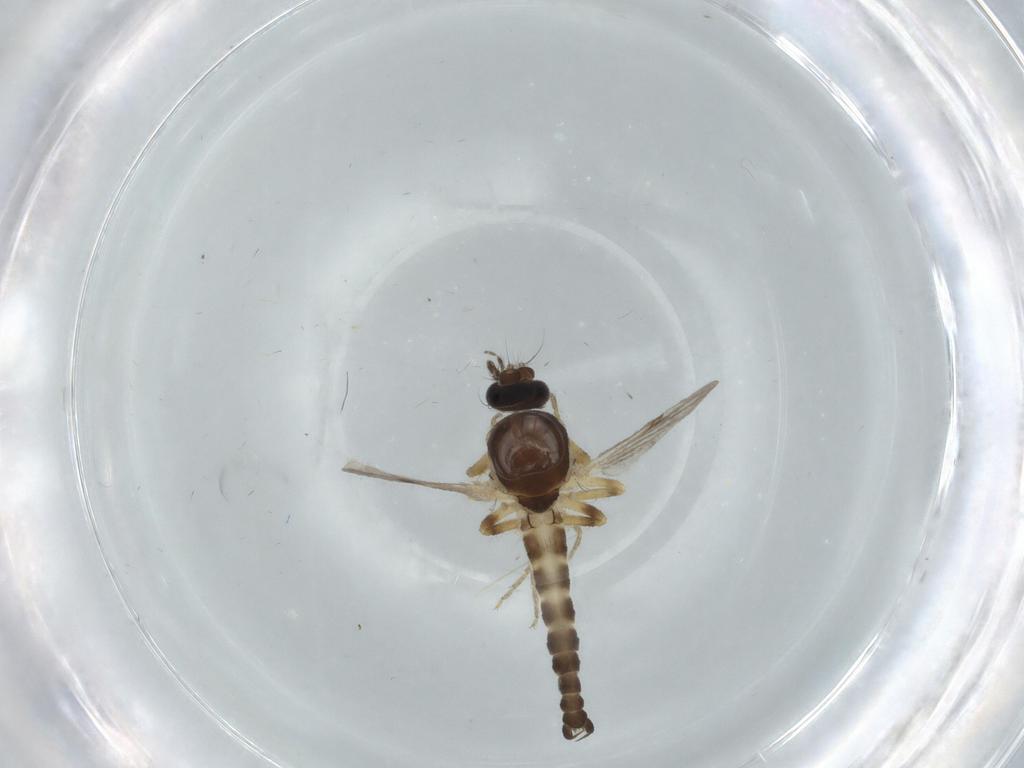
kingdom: Animalia
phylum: Arthropoda
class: Insecta
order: Diptera
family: Ceratopogonidae
